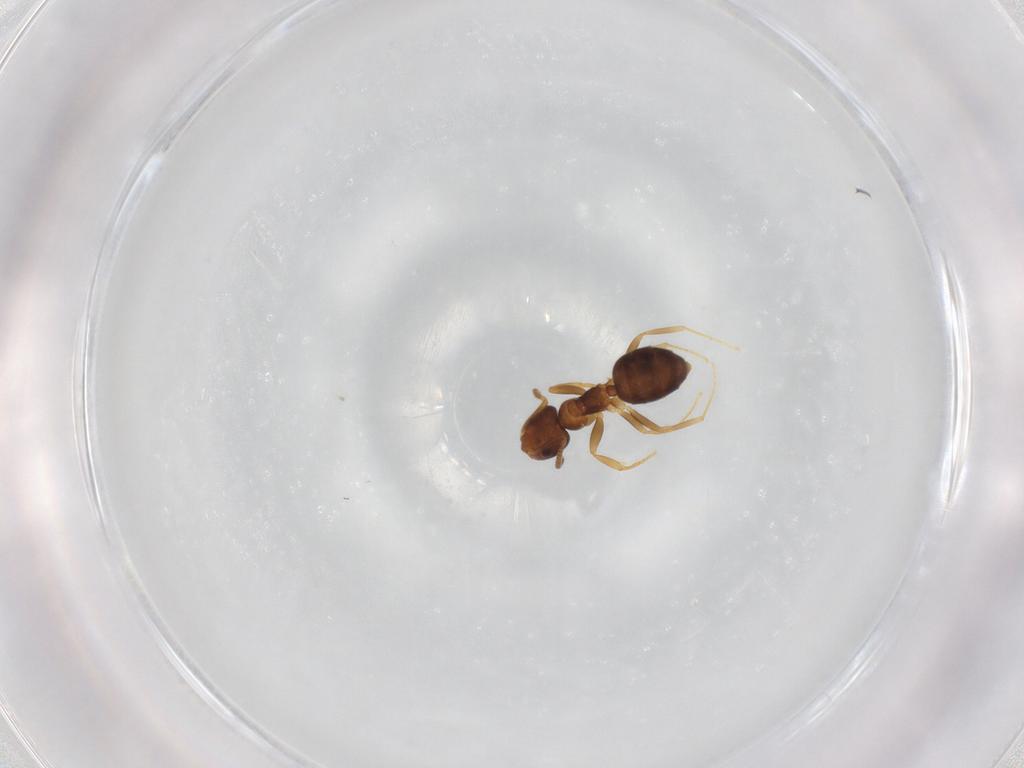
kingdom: Animalia
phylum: Arthropoda
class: Insecta
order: Hymenoptera
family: Formicidae
